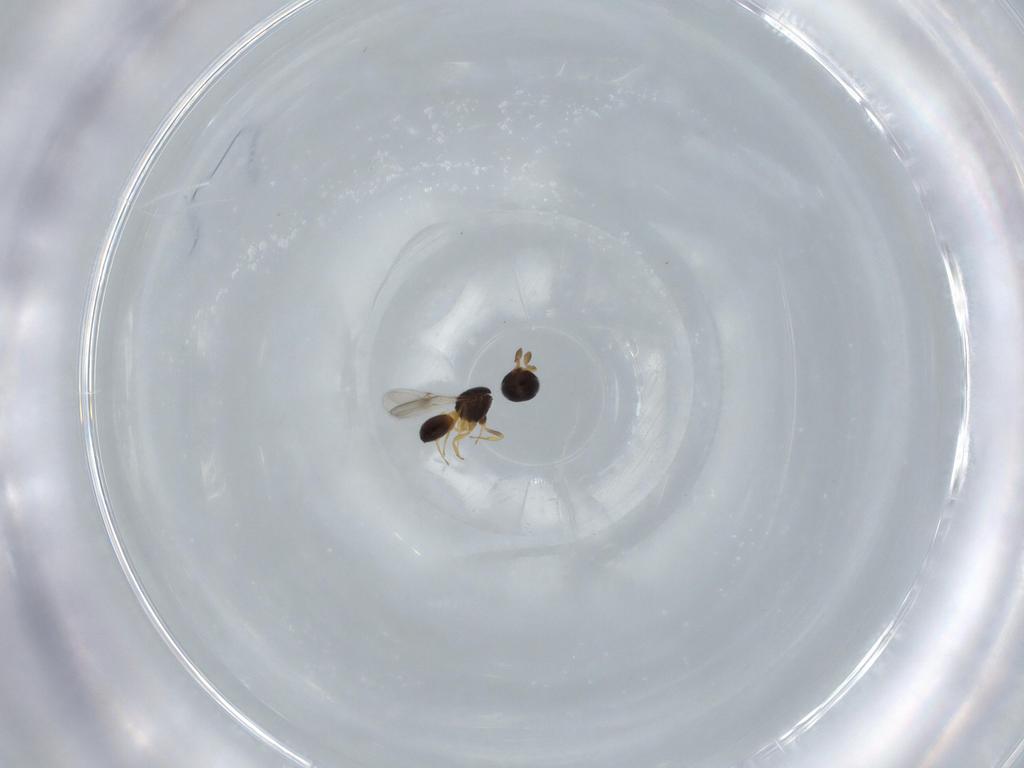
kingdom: Animalia
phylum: Arthropoda
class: Insecta
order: Hymenoptera
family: Scelionidae
